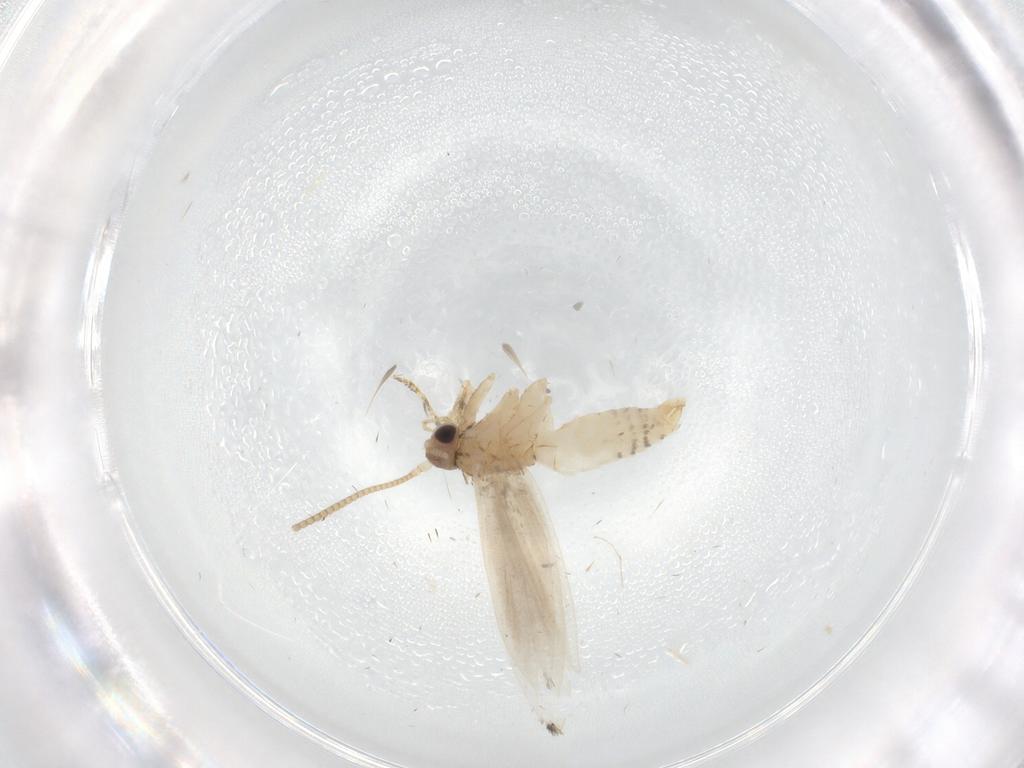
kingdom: Animalia
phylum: Arthropoda
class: Insecta
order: Lepidoptera
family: Tineidae
